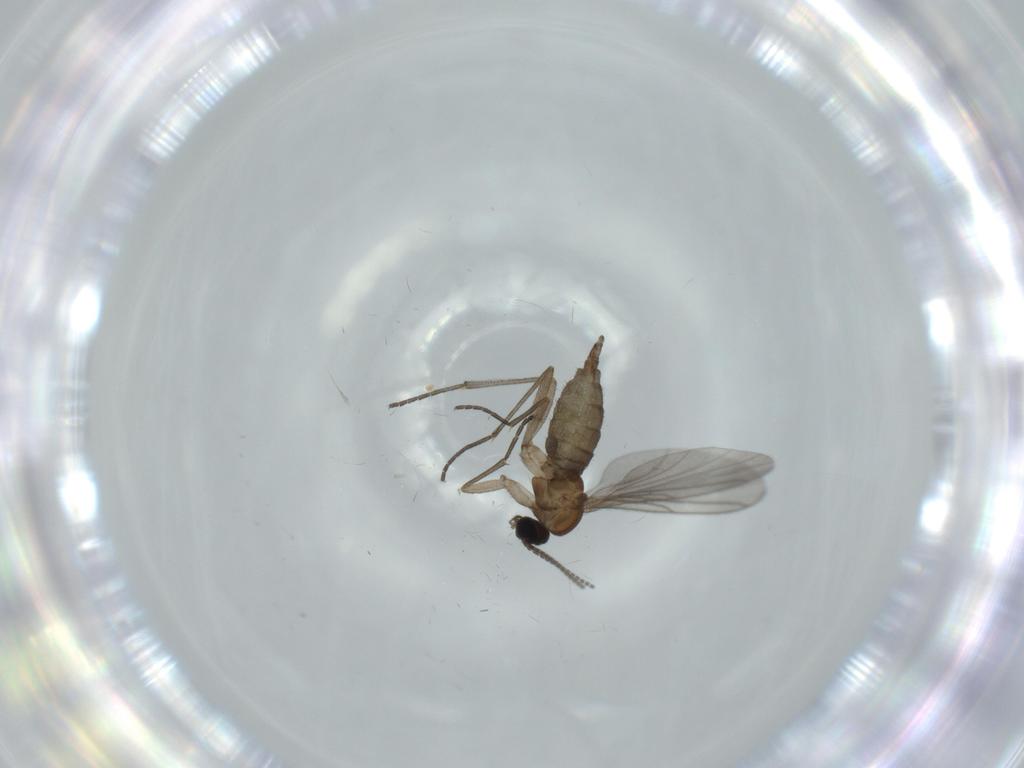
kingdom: Animalia
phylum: Arthropoda
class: Insecta
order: Diptera
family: Sciaridae
